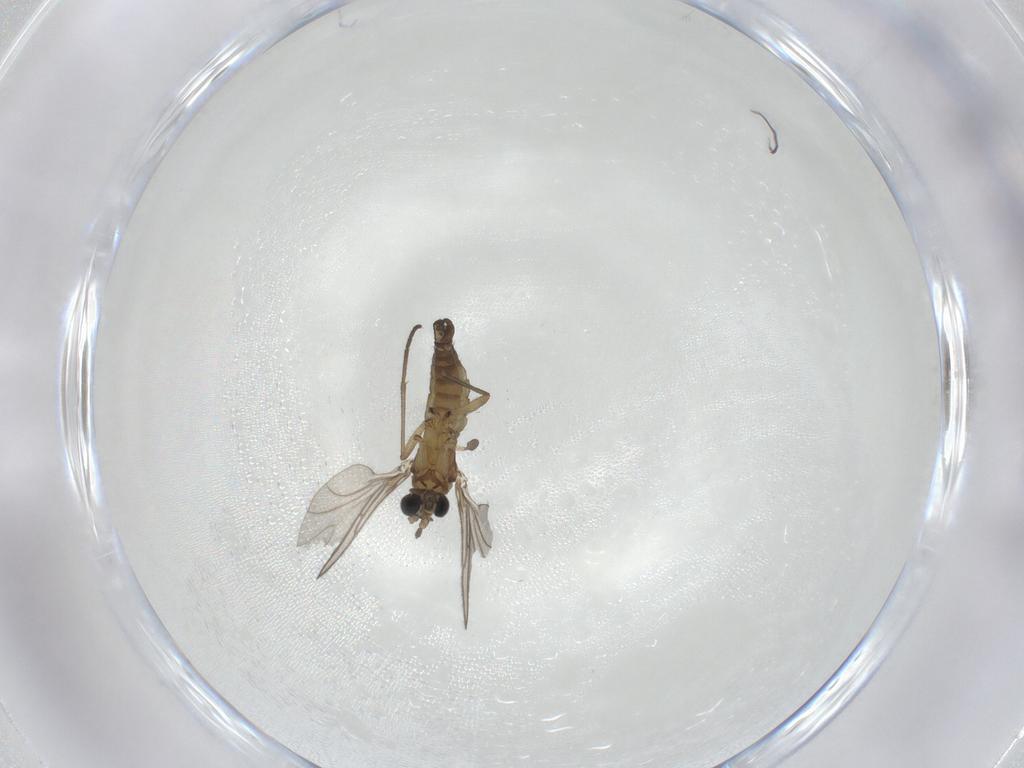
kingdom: Animalia
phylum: Arthropoda
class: Insecta
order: Diptera
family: Sciaridae
